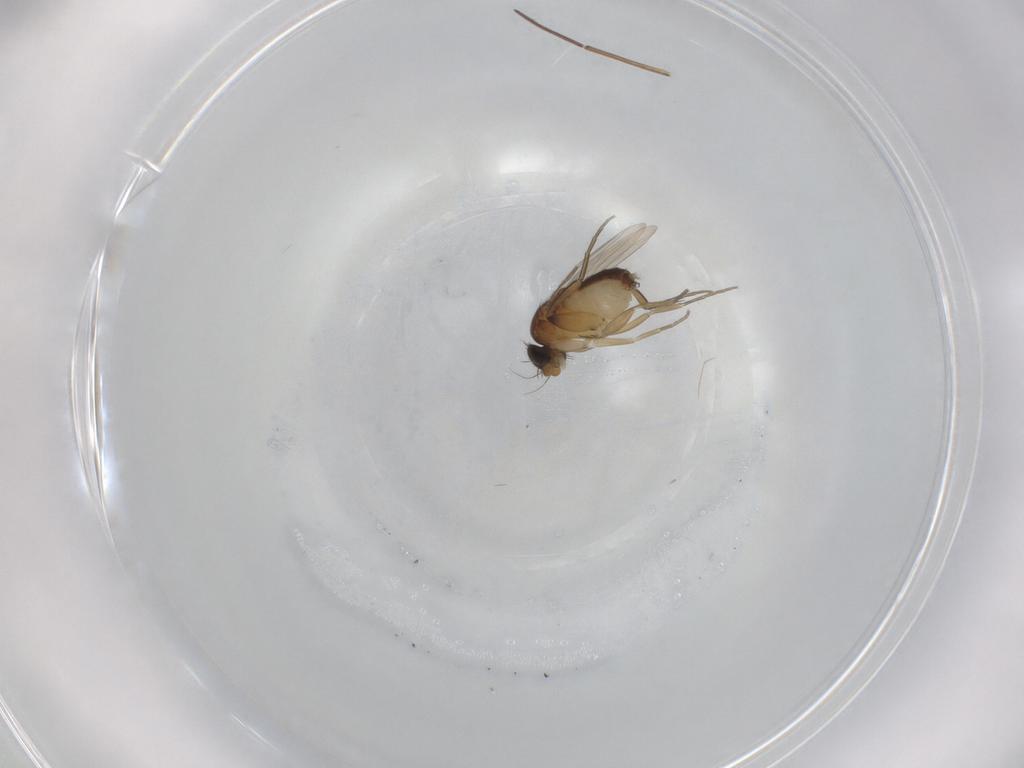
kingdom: Animalia
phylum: Arthropoda
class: Insecta
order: Diptera
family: Phoridae
